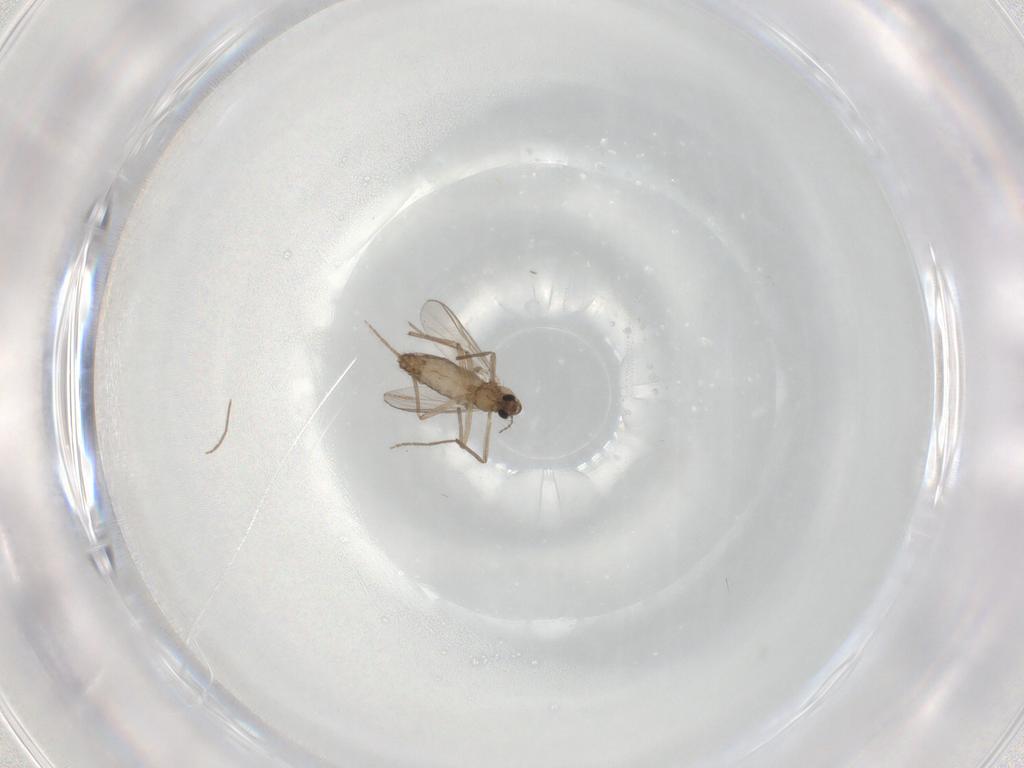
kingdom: Animalia
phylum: Arthropoda
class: Insecta
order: Diptera
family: Chironomidae
